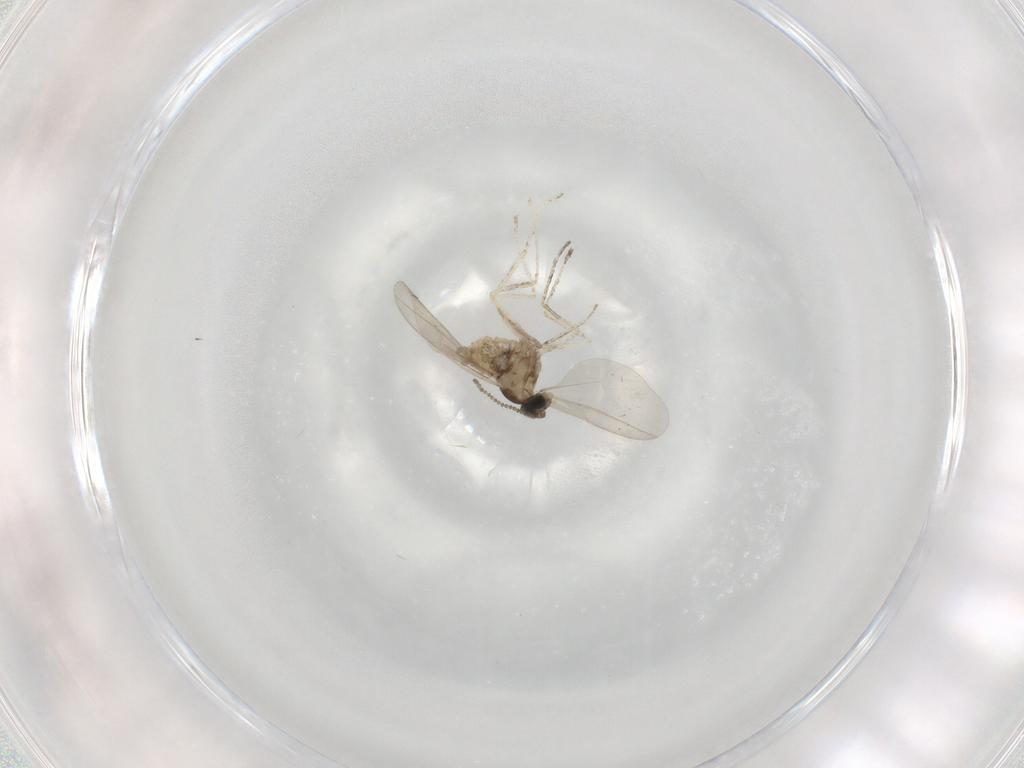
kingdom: Animalia
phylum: Arthropoda
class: Insecta
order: Diptera
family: Cecidomyiidae
